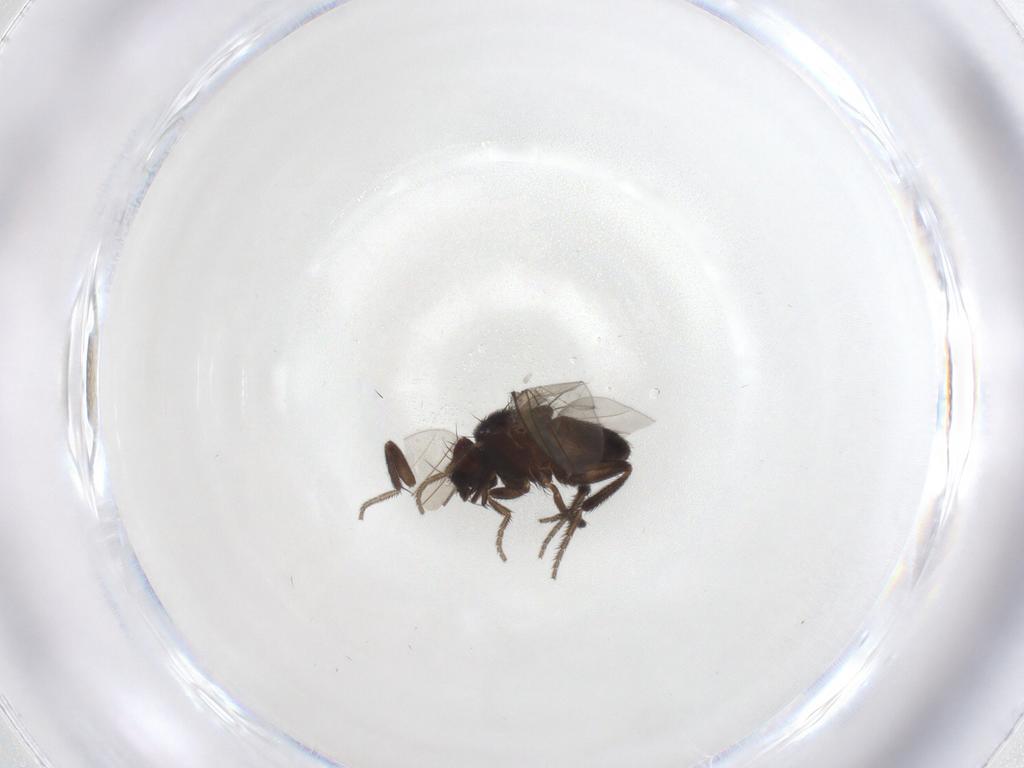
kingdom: Animalia
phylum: Arthropoda
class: Insecta
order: Diptera
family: Milichiidae
